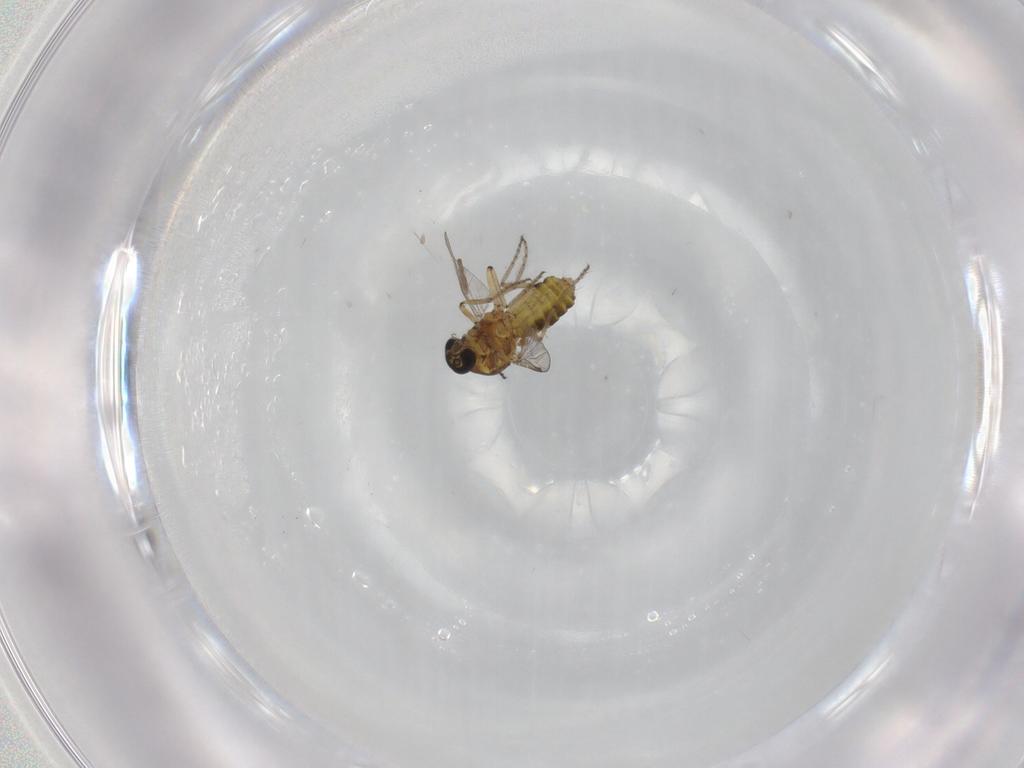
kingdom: Animalia
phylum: Arthropoda
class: Insecta
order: Diptera
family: Ceratopogonidae
